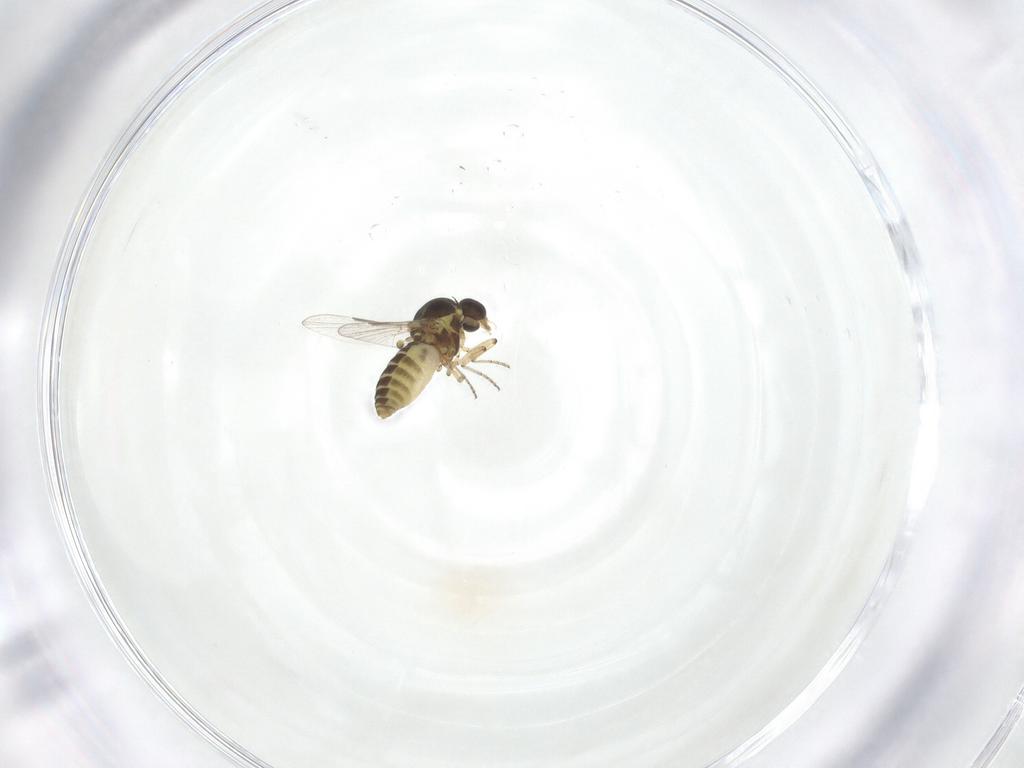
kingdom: Animalia
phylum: Arthropoda
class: Insecta
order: Diptera
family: Ceratopogonidae
